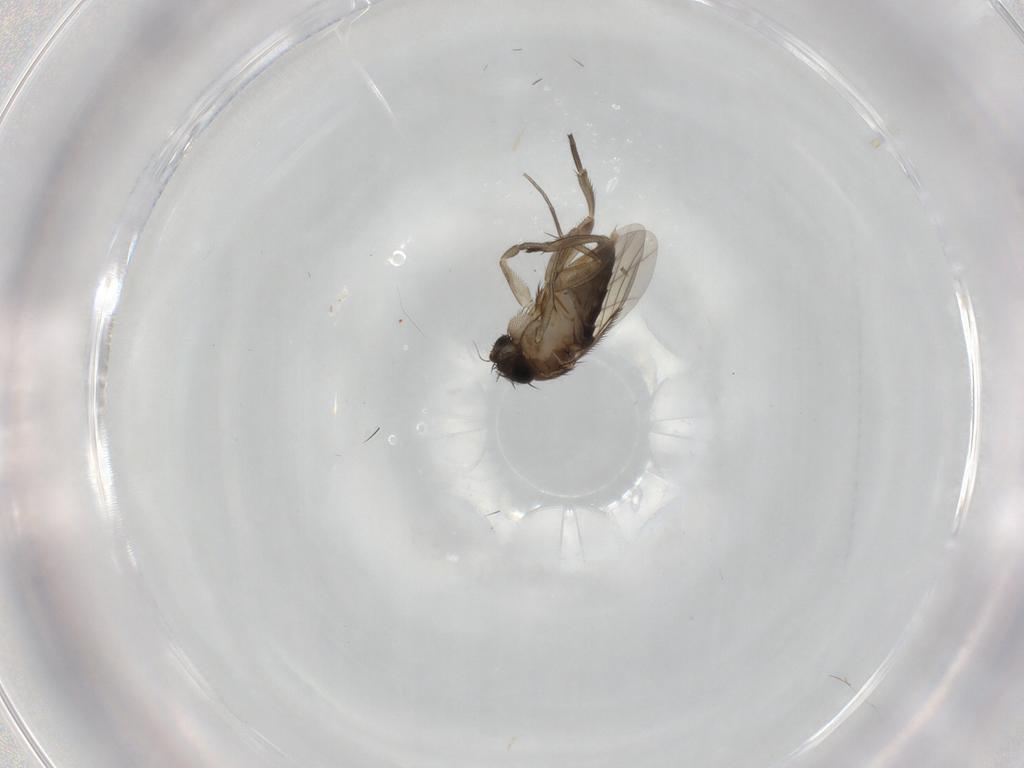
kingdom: Animalia
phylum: Arthropoda
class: Insecta
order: Diptera
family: Phoridae
